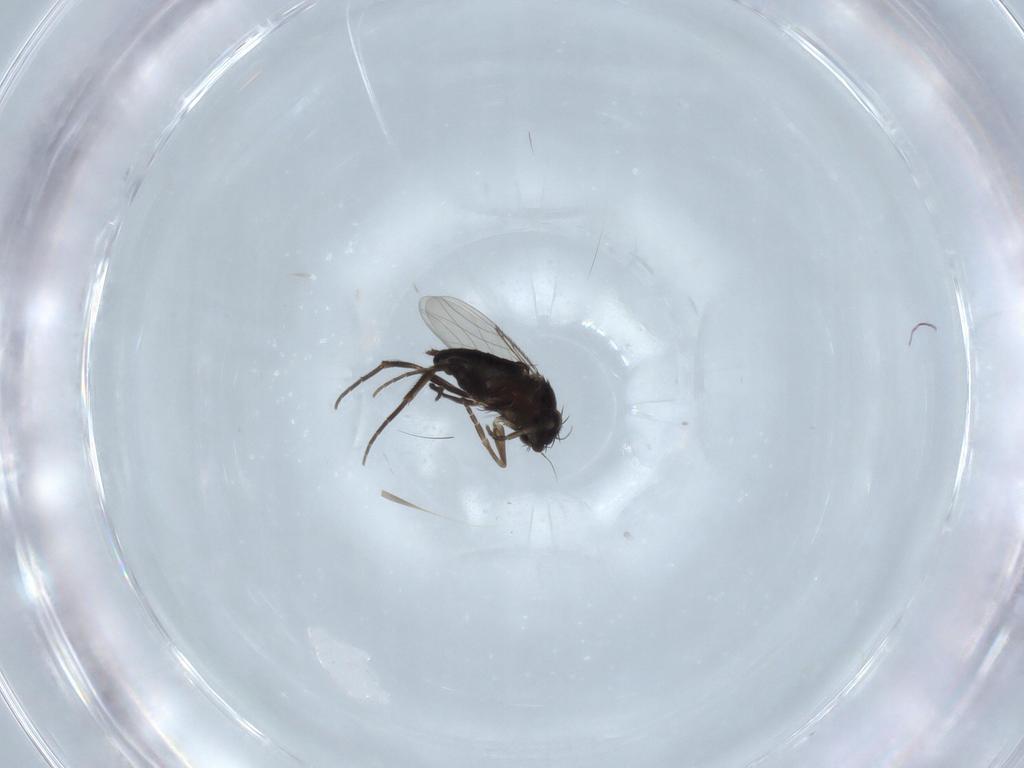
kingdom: Animalia
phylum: Arthropoda
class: Insecta
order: Diptera
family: Phoridae
